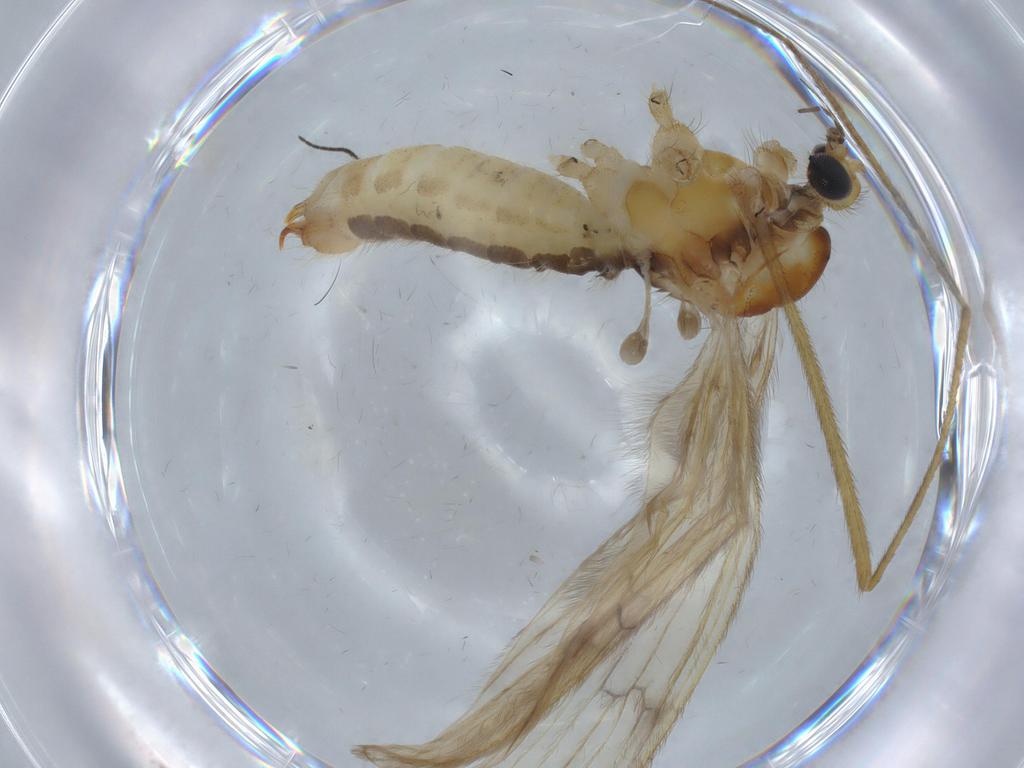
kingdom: Animalia
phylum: Arthropoda
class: Insecta
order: Diptera
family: Limoniidae
